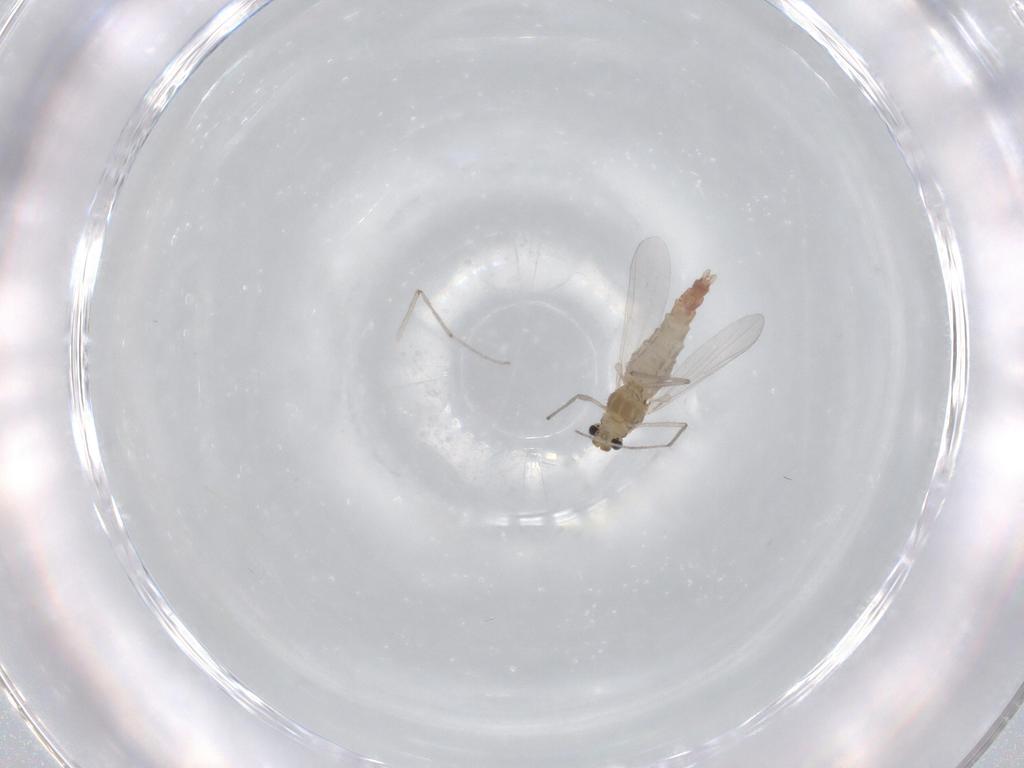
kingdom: Animalia
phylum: Arthropoda
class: Insecta
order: Diptera
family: Chironomidae
